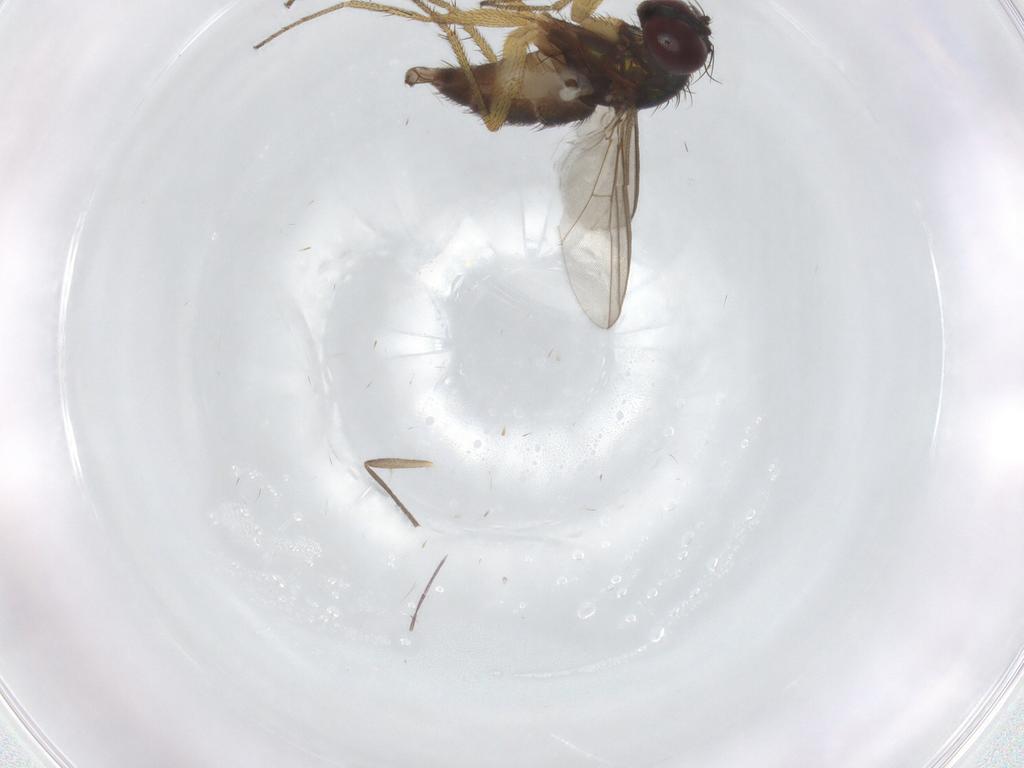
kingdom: Animalia
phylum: Arthropoda
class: Insecta
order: Diptera
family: Chironomidae
